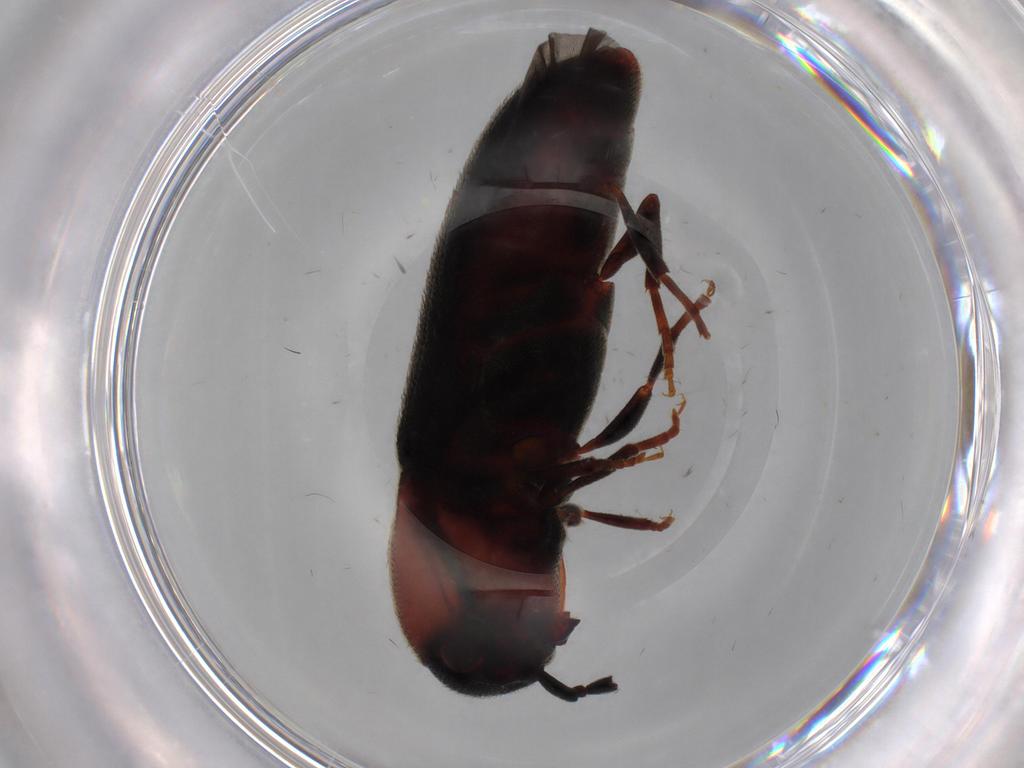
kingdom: Animalia
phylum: Arthropoda
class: Insecta
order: Coleoptera
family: Eucnemidae
